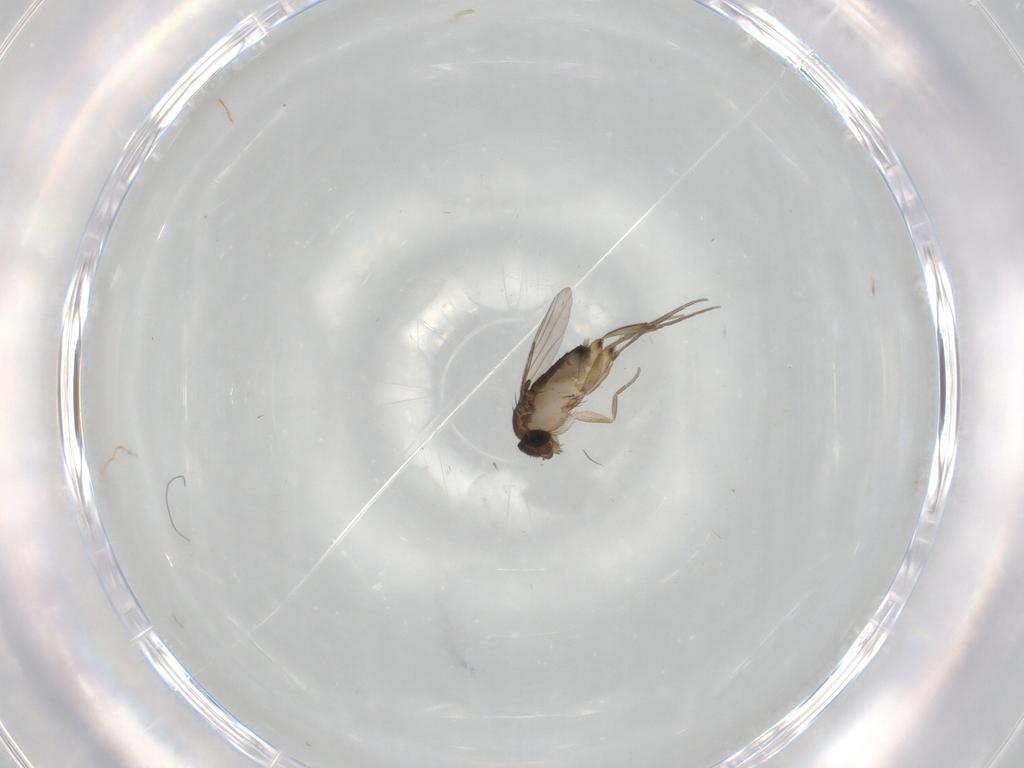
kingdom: Animalia
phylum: Arthropoda
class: Insecta
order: Diptera
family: Phoridae
